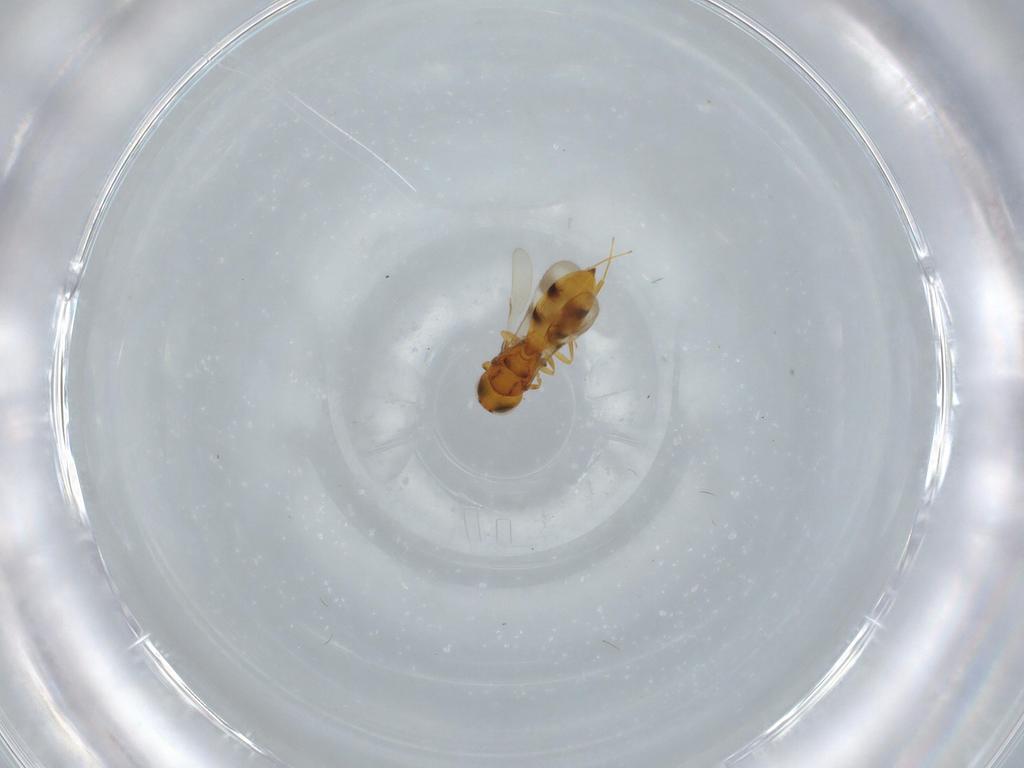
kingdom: Animalia
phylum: Arthropoda
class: Insecta
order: Hymenoptera
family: Scelionidae
